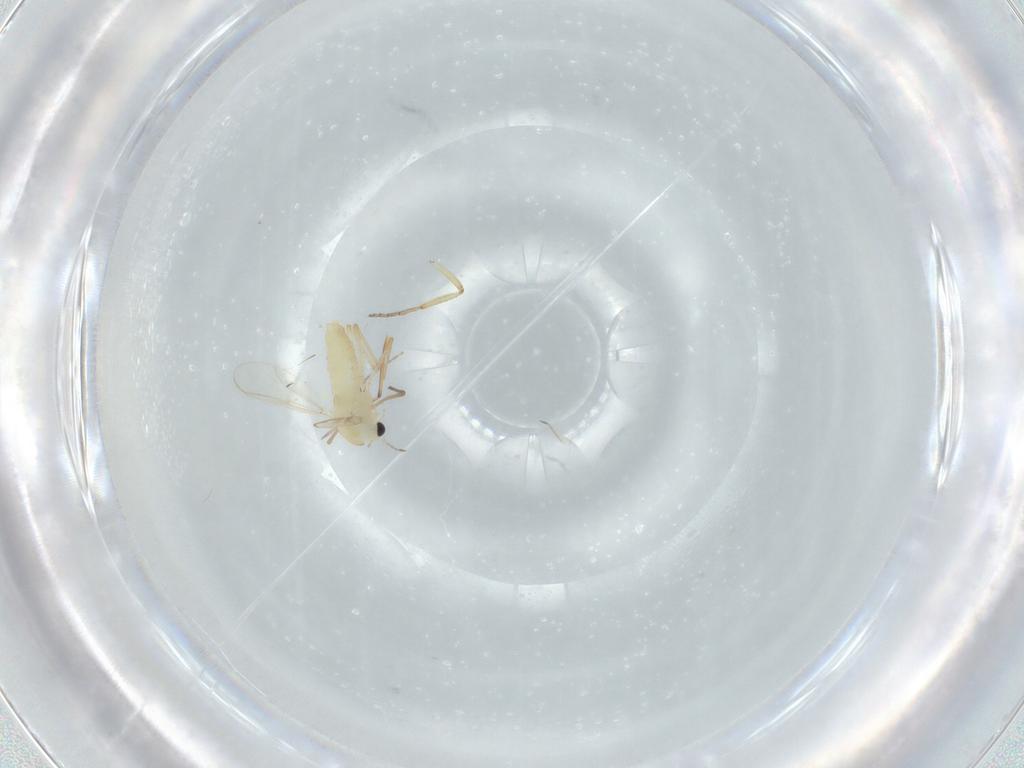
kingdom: Animalia
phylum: Arthropoda
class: Insecta
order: Diptera
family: Chironomidae
